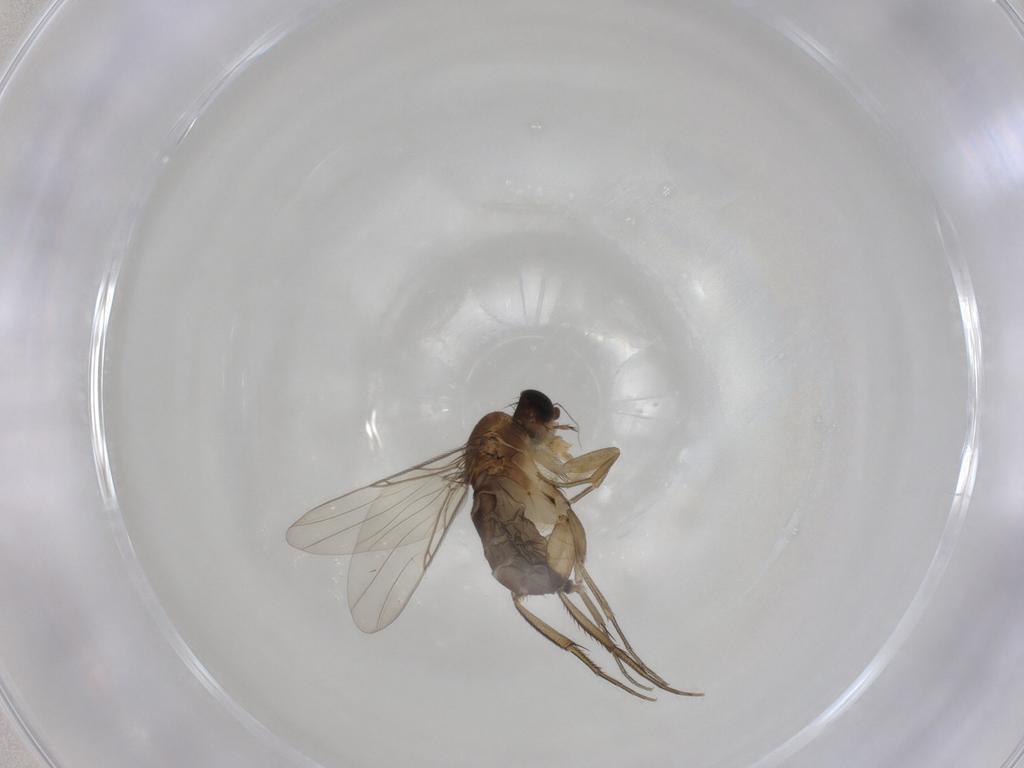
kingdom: Animalia
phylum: Arthropoda
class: Insecta
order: Diptera
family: Phoridae
